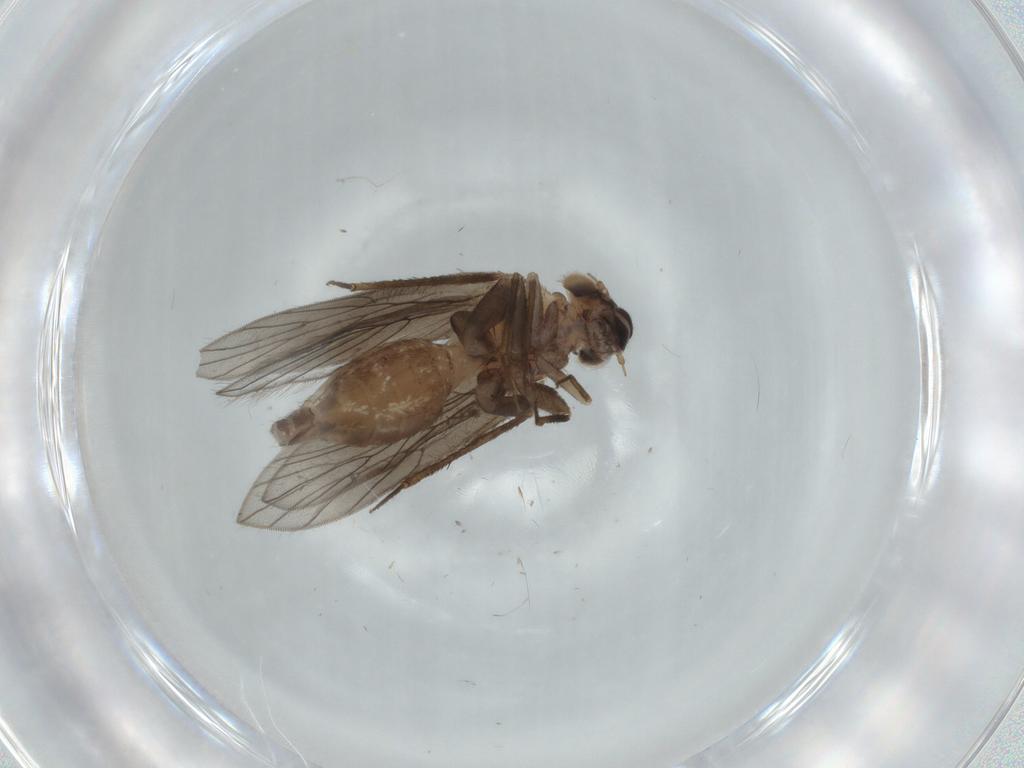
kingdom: Animalia
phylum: Arthropoda
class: Insecta
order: Psocodea
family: Lepidopsocidae
